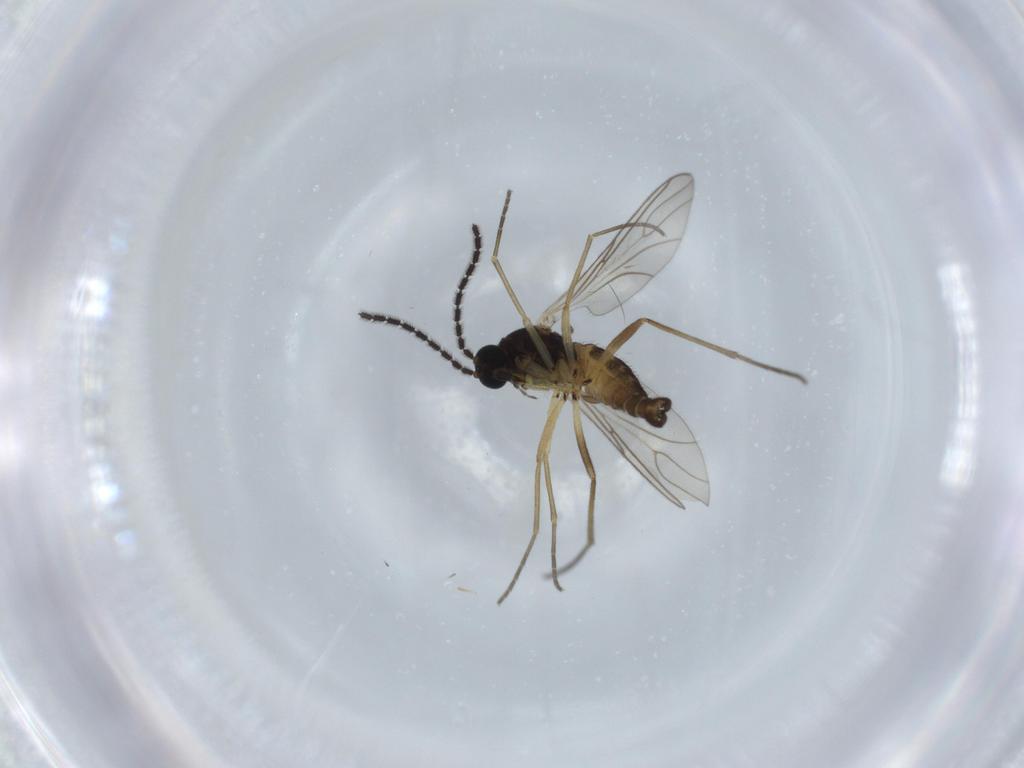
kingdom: Animalia
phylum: Arthropoda
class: Insecta
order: Diptera
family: Sciaridae
